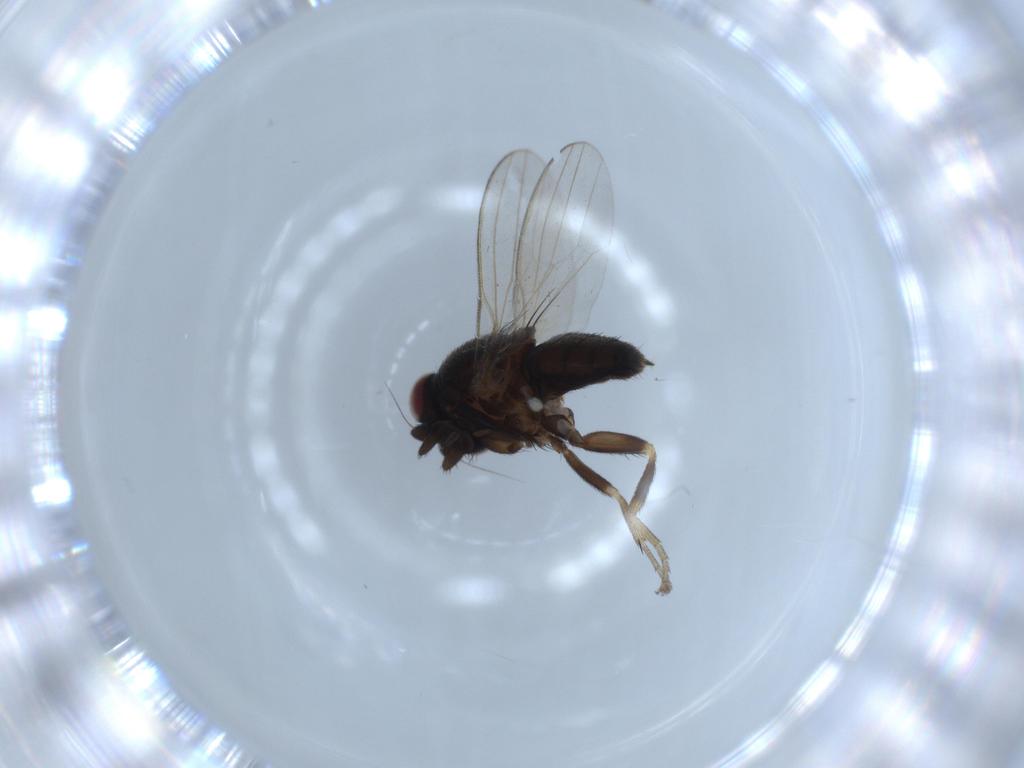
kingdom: Animalia
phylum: Arthropoda
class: Insecta
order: Diptera
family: Milichiidae
